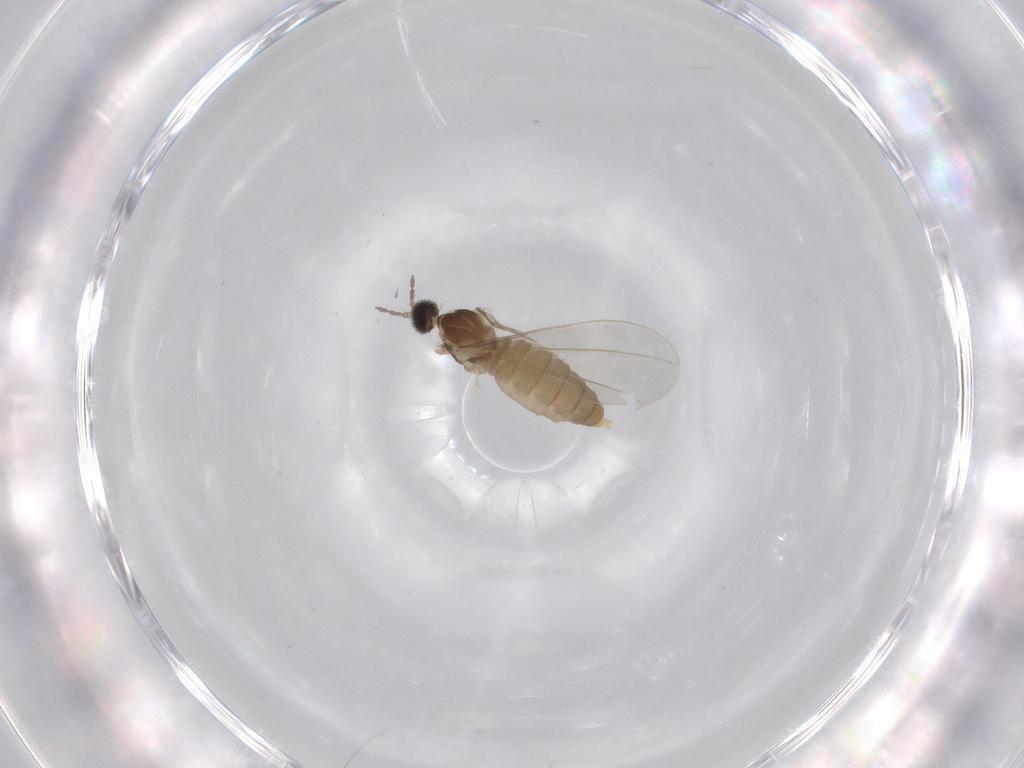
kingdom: Animalia
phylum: Arthropoda
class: Insecta
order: Diptera
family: Cecidomyiidae
